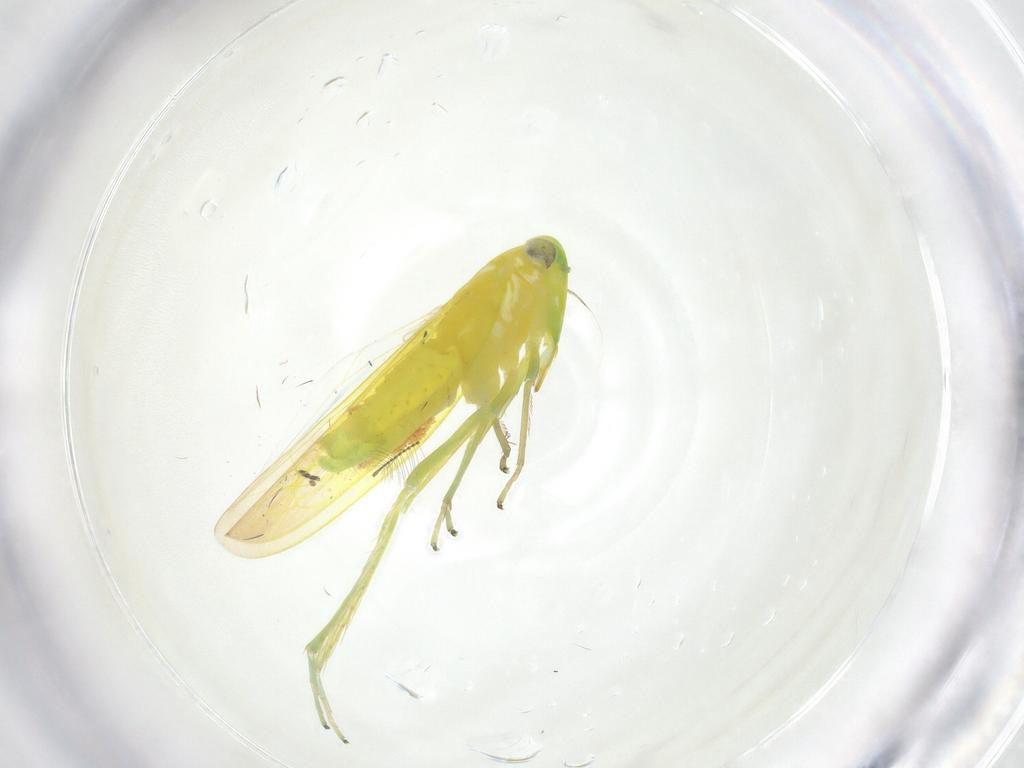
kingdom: Animalia
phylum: Arthropoda
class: Insecta
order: Hemiptera
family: Cicadellidae
